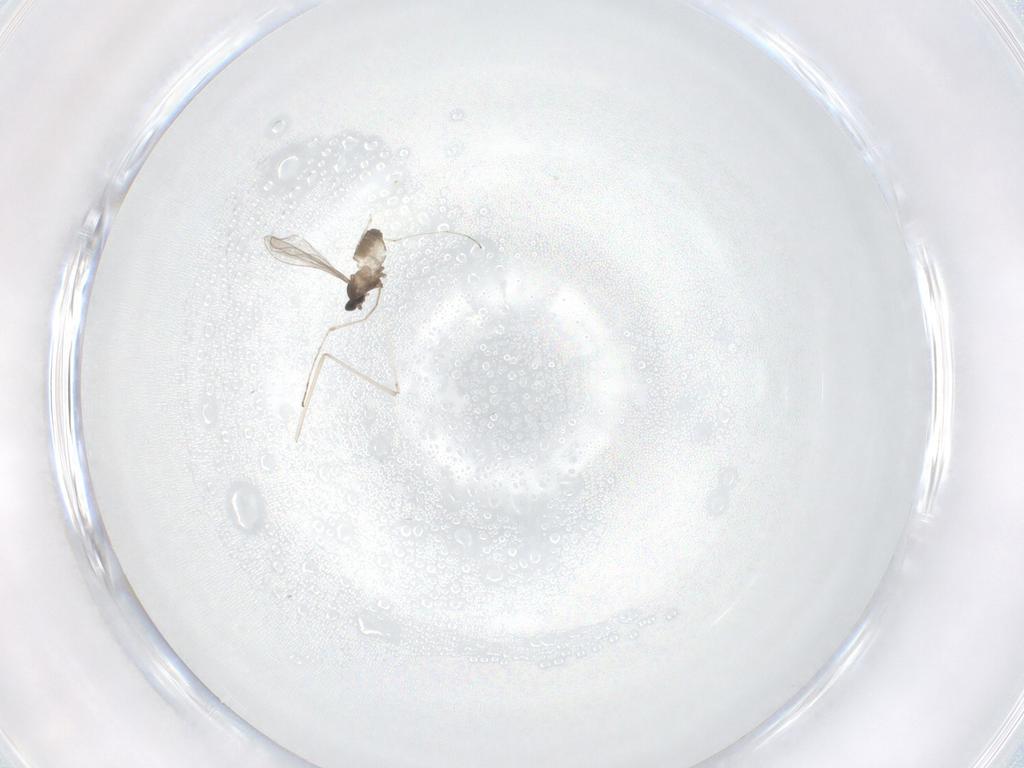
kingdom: Animalia
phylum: Arthropoda
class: Insecta
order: Diptera
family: Cecidomyiidae
